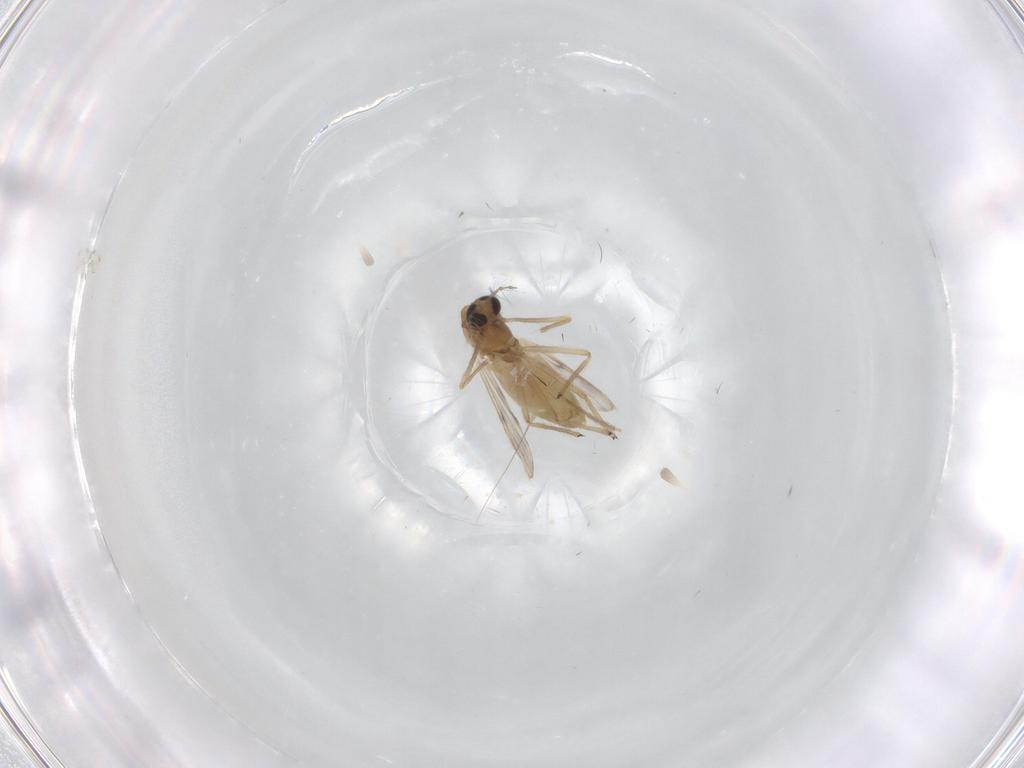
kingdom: Animalia
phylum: Arthropoda
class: Insecta
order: Diptera
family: Chironomidae
